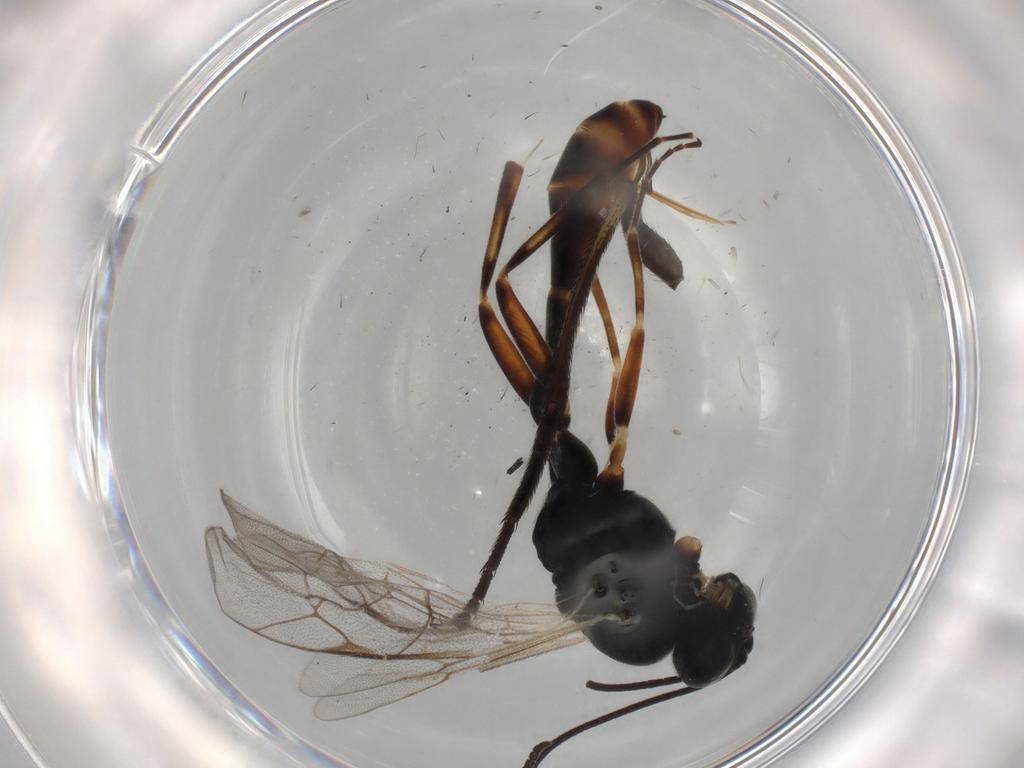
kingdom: Animalia
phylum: Arthropoda
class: Insecta
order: Hymenoptera
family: Ichneumonidae
